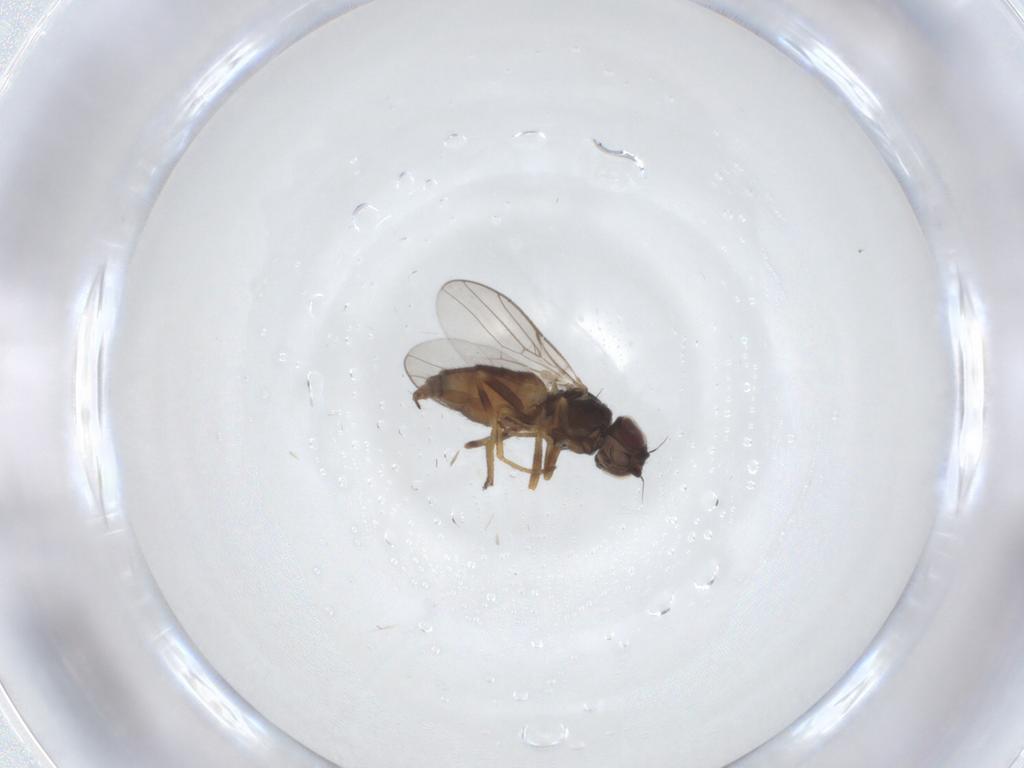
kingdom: Animalia
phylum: Arthropoda
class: Insecta
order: Diptera
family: Chloropidae
